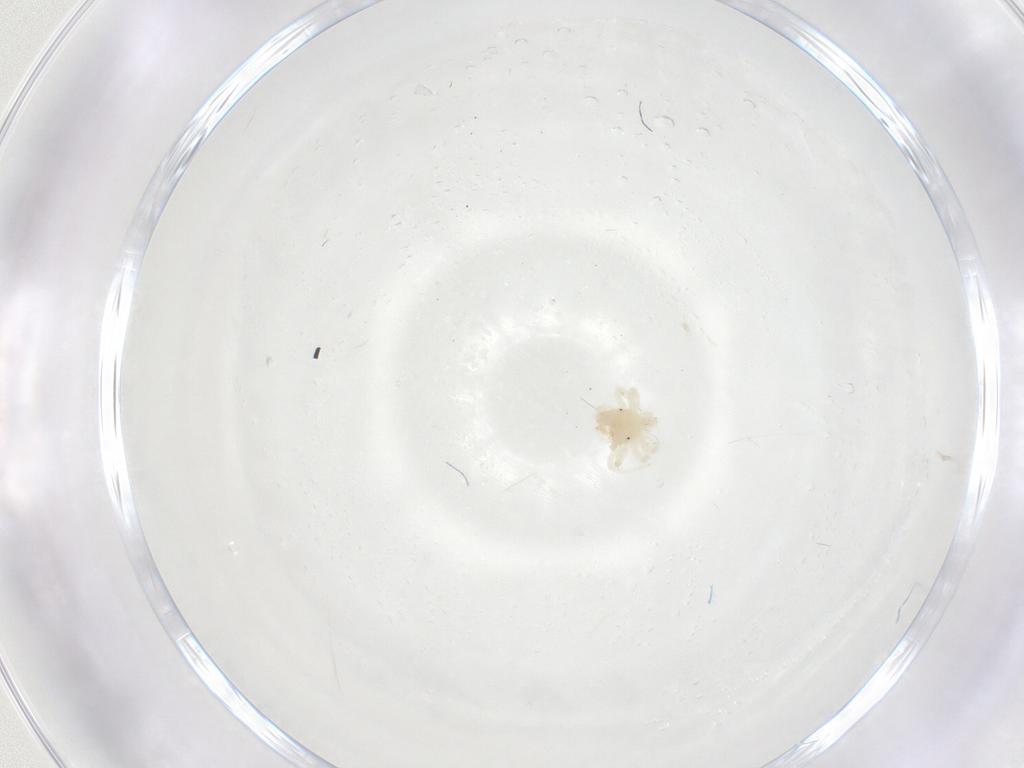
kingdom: Animalia
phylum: Arthropoda
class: Arachnida
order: Trombidiformes
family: Anystidae
